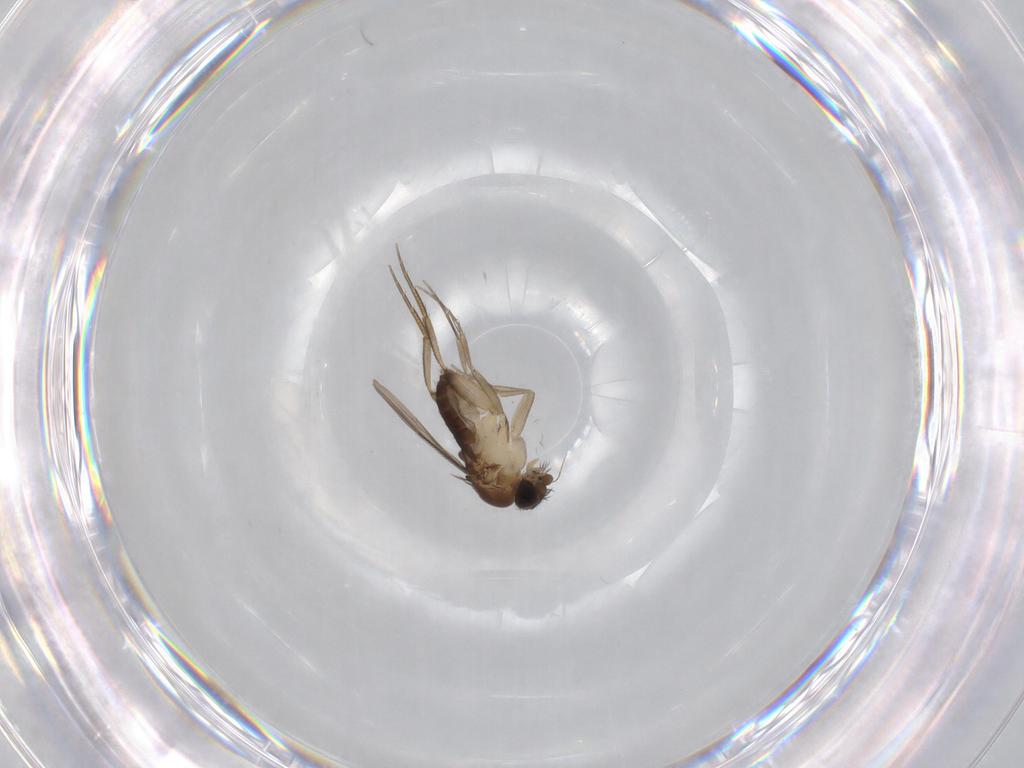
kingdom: Animalia
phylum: Arthropoda
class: Insecta
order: Diptera
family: Phoridae
